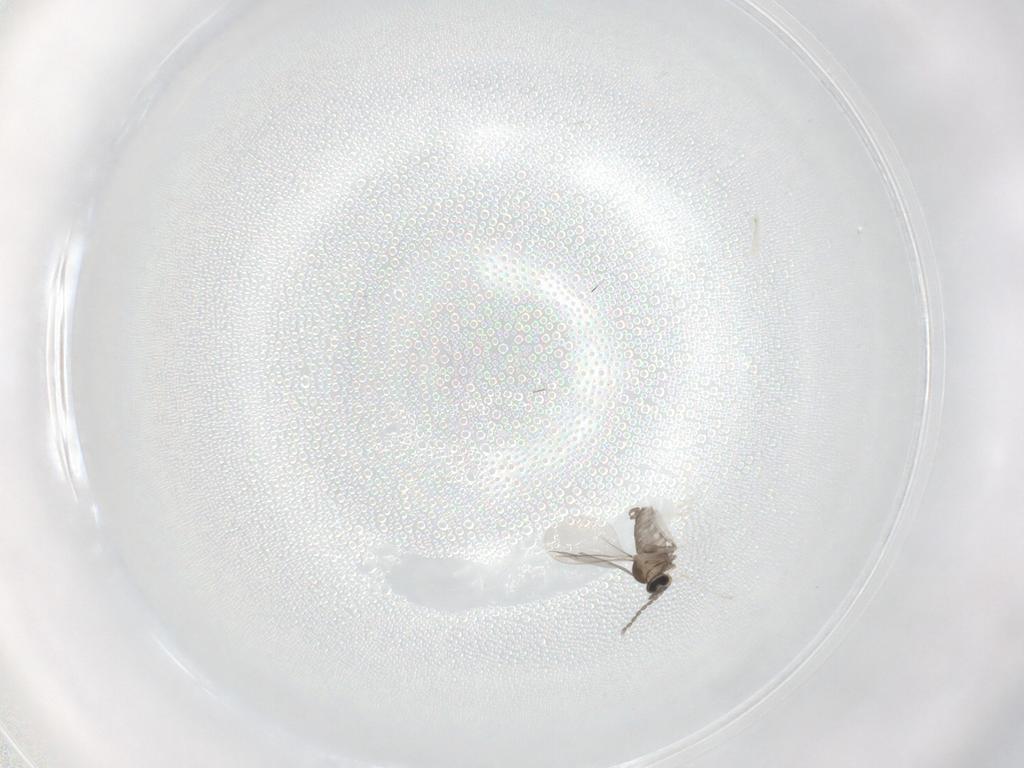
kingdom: Animalia
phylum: Arthropoda
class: Insecta
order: Diptera
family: Cecidomyiidae
